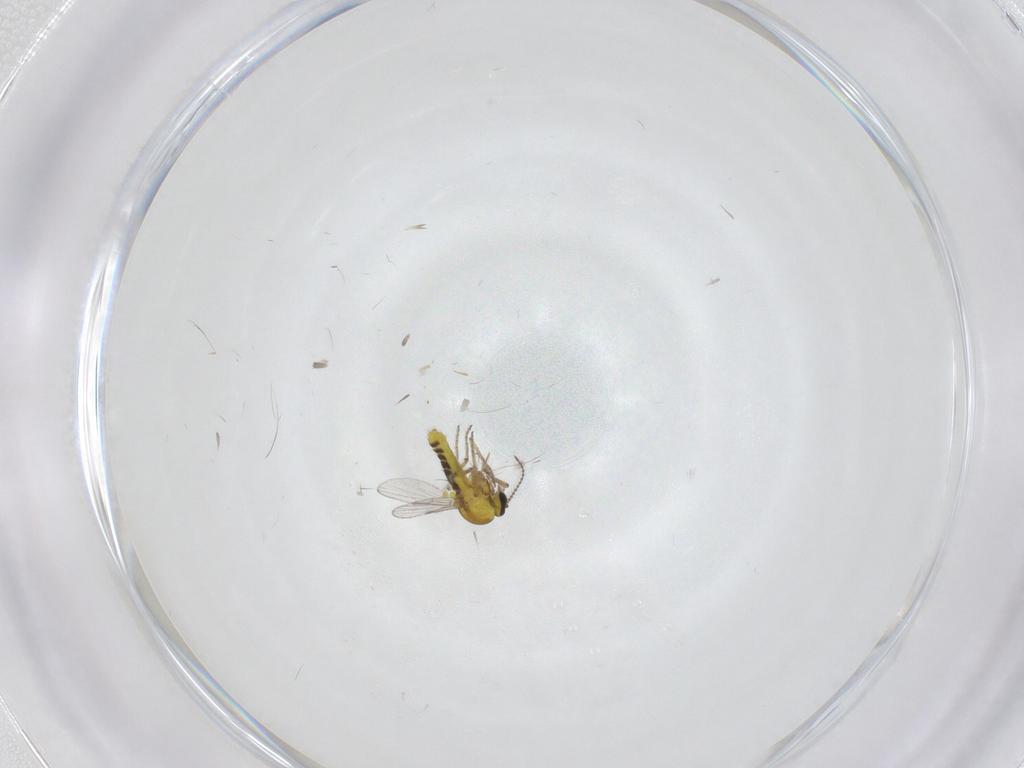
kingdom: Animalia
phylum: Arthropoda
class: Insecta
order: Diptera
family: Ceratopogonidae
